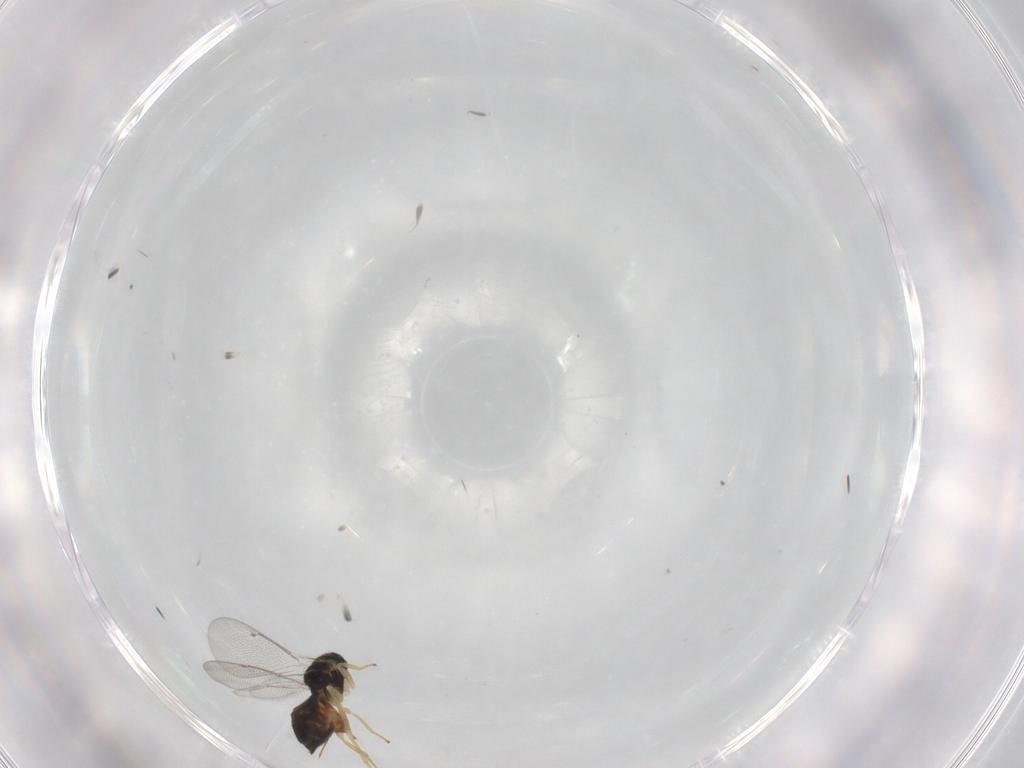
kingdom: Animalia
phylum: Arthropoda
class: Insecta
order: Hymenoptera
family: Eulophidae
